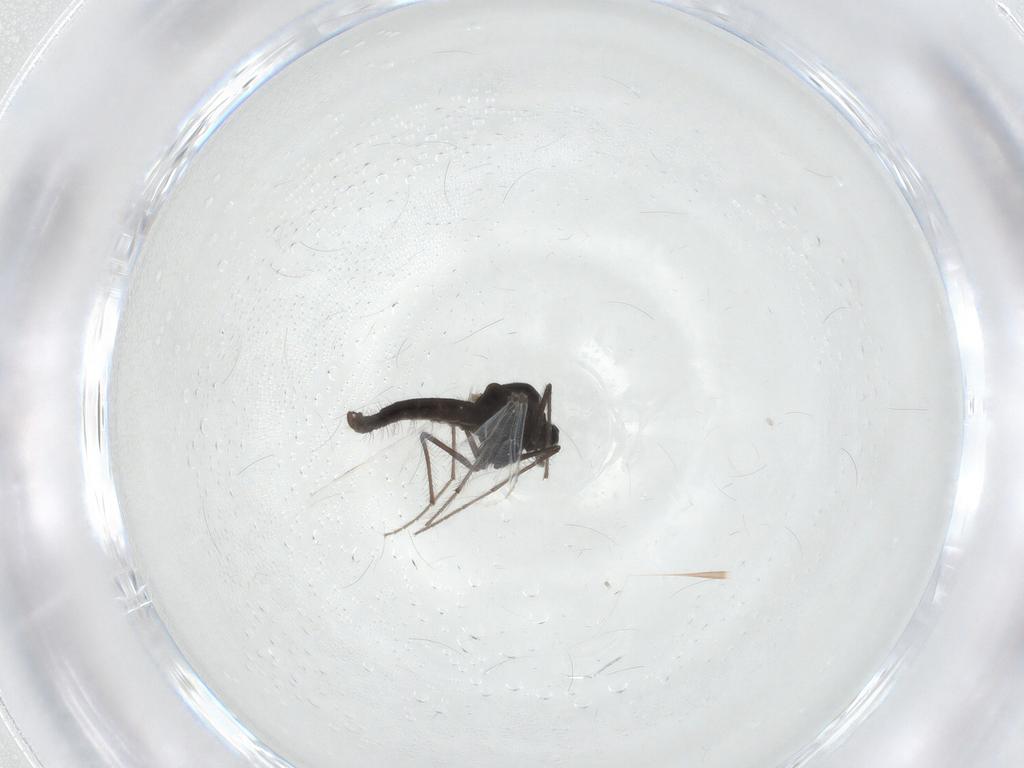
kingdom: Animalia
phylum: Arthropoda
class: Insecta
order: Diptera
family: Chironomidae
